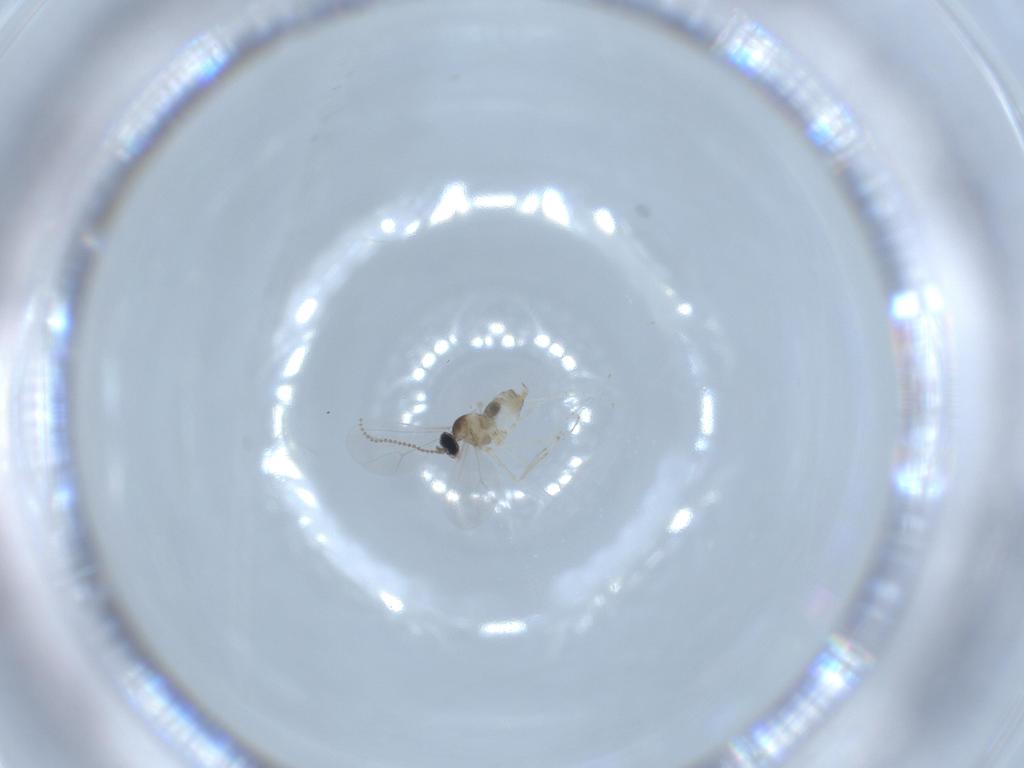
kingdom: Animalia
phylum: Arthropoda
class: Insecta
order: Diptera
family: Cecidomyiidae
